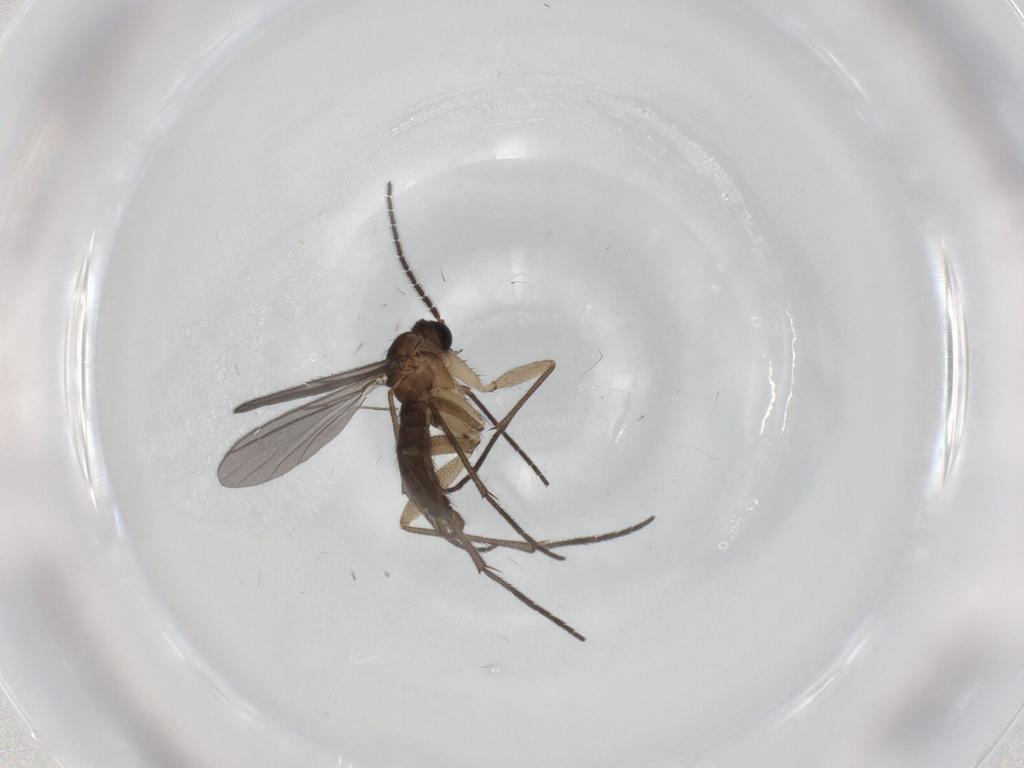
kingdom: Animalia
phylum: Arthropoda
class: Insecta
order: Diptera
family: Sciaridae
